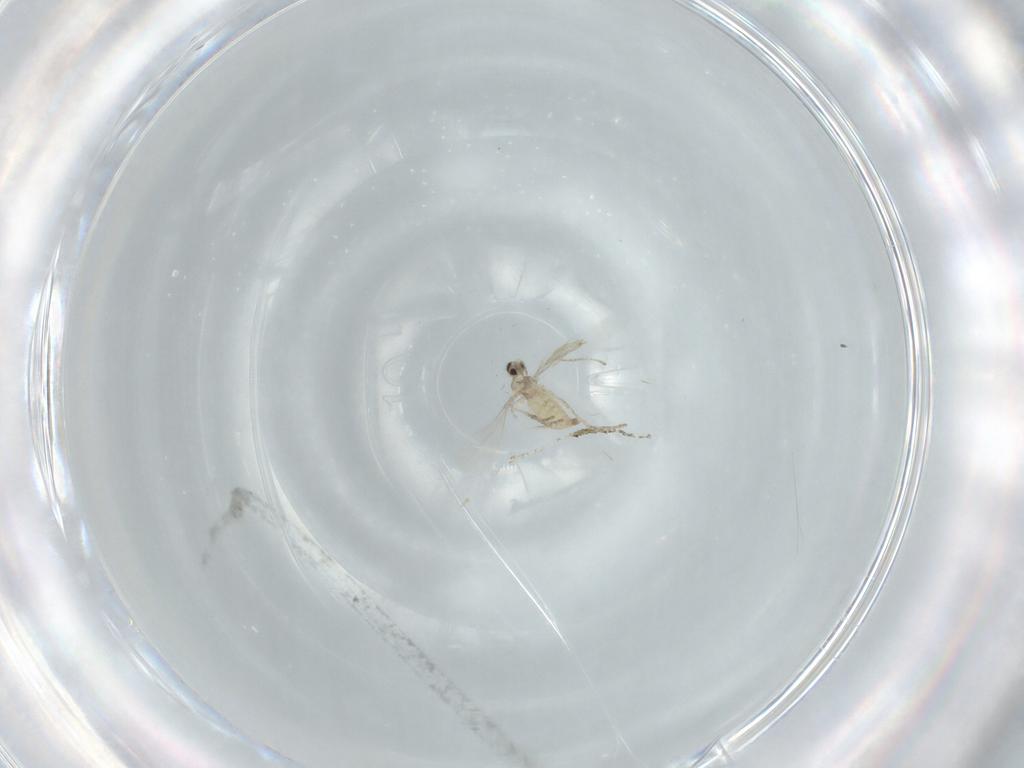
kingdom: Animalia
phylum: Arthropoda
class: Insecta
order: Diptera
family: Cecidomyiidae
